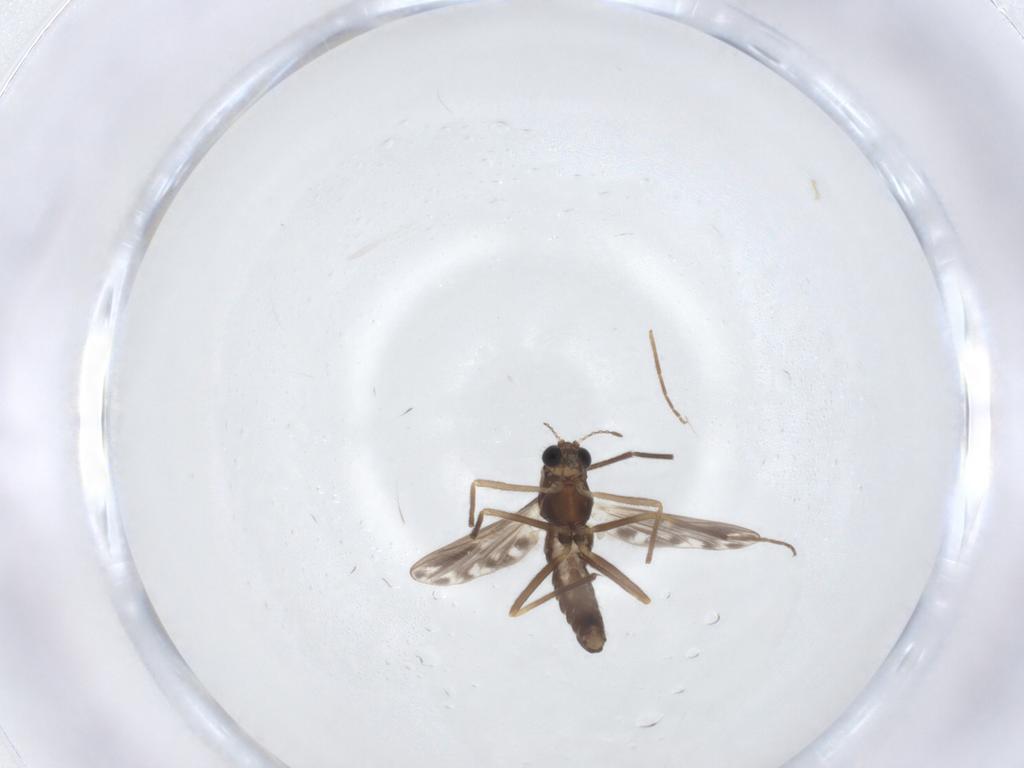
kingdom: Animalia
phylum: Arthropoda
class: Insecta
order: Diptera
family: Chironomidae
